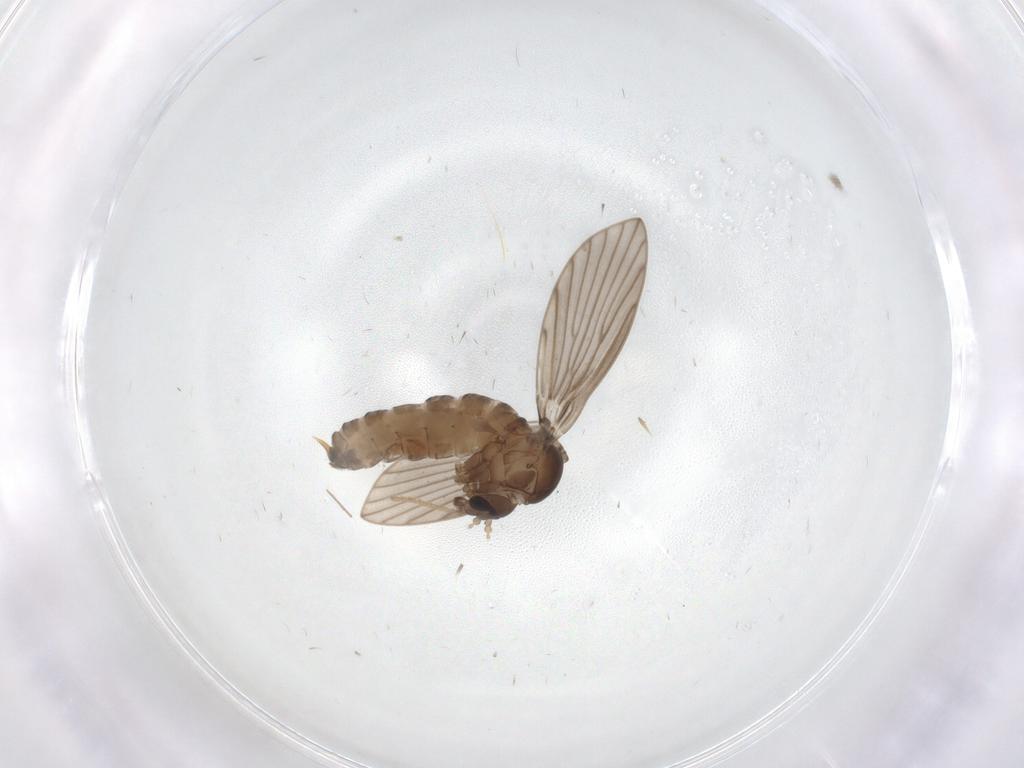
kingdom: Animalia
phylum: Arthropoda
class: Insecta
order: Diptera
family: Psychodidae
